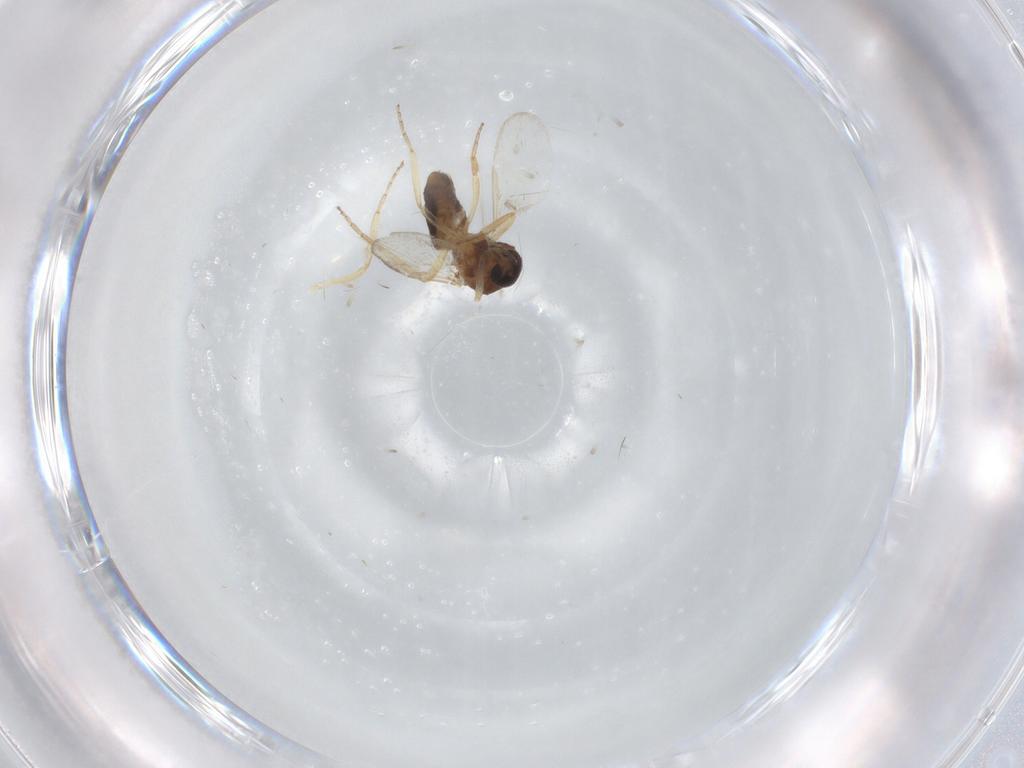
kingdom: Animalia
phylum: Arthropoda
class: Insecta
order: Diptera
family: Ceratopogonidae
